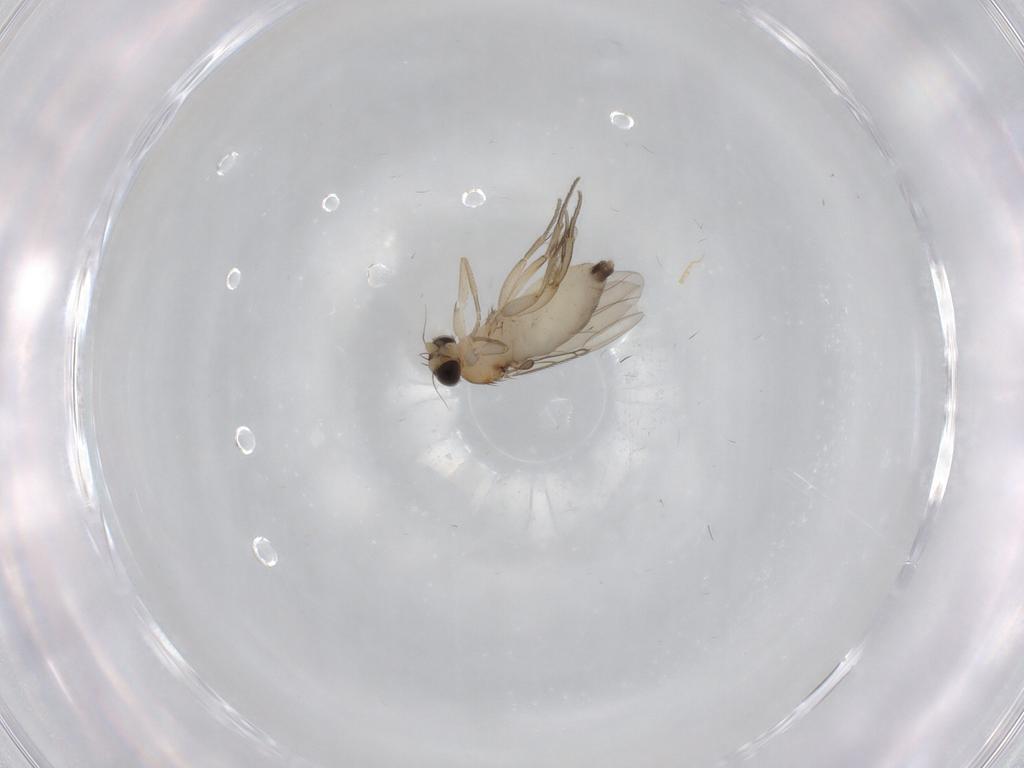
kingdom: Animalia
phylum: Arthropoda
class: Insecta
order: Diptera
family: Phoridae
